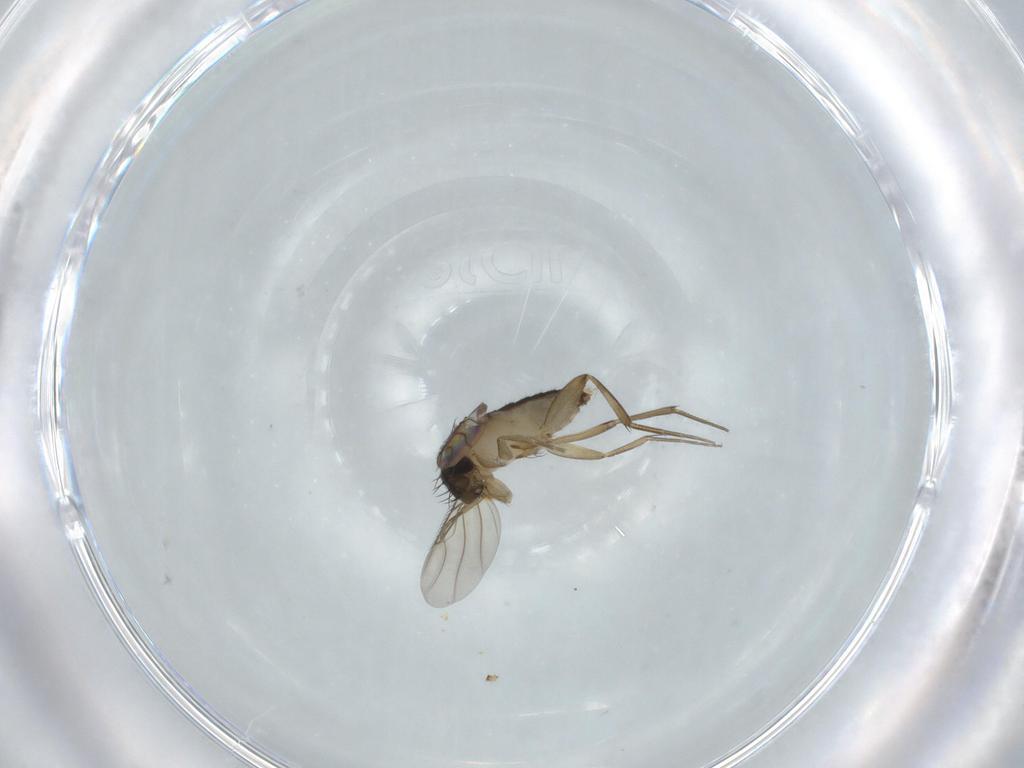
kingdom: Animalia
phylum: Arthropoda
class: Insecta
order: Diptera
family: Phoridae
